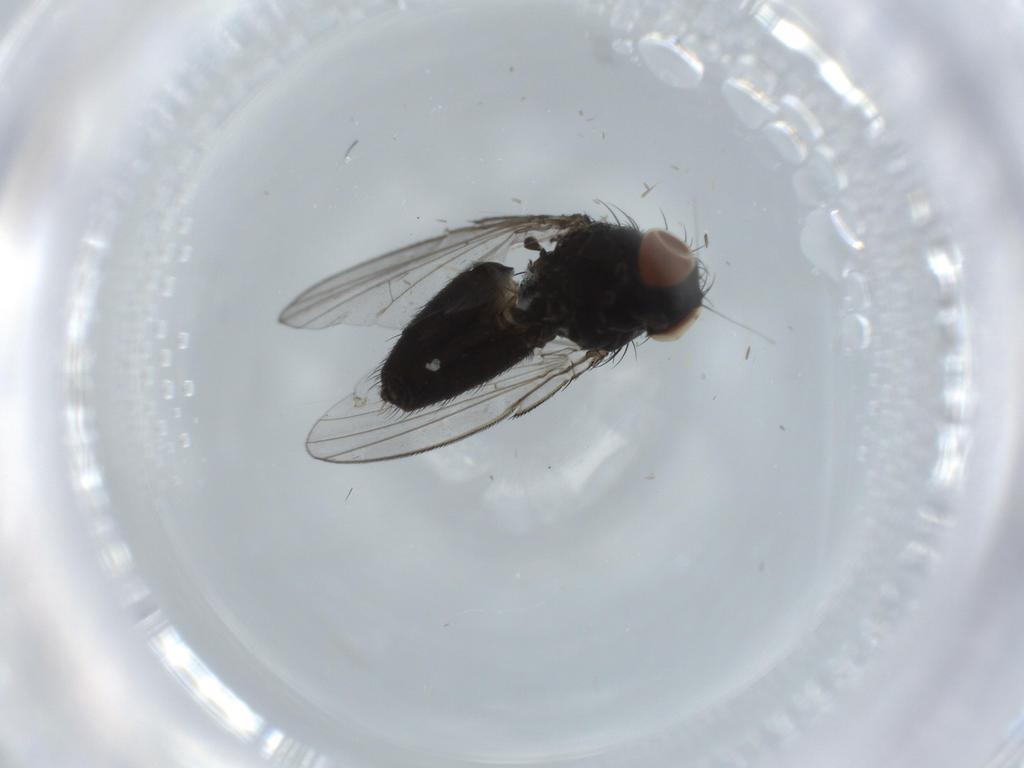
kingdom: Animalia
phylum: Arthropoda
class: Insecta
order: Diptera
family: Milichiidae
